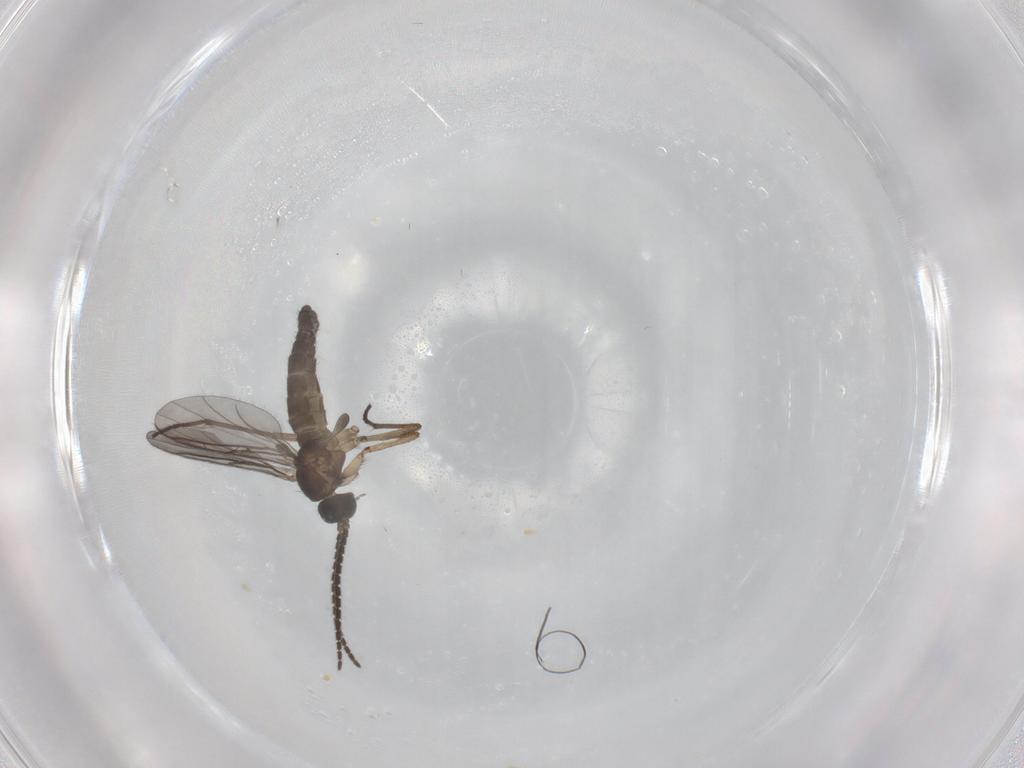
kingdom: Animalia
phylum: Arthropoda
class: Insecta
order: Diptera
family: Sciaridae
